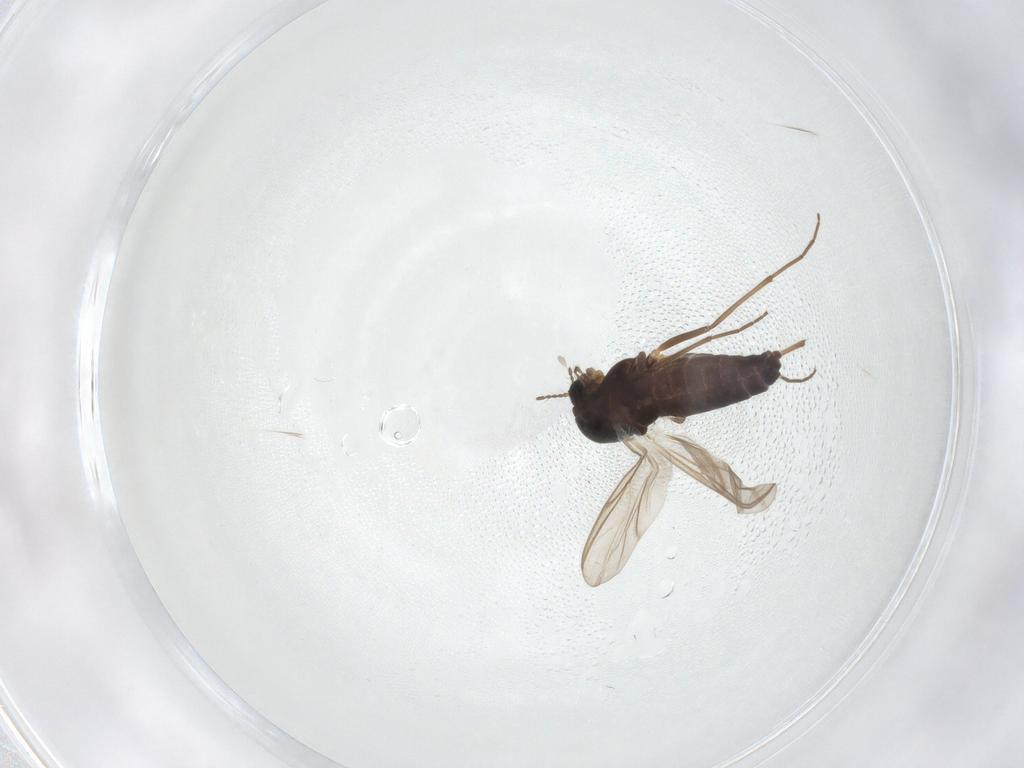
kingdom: Animalia
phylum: Arthropoda
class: Insecta
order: Diptera
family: Chironomidae
